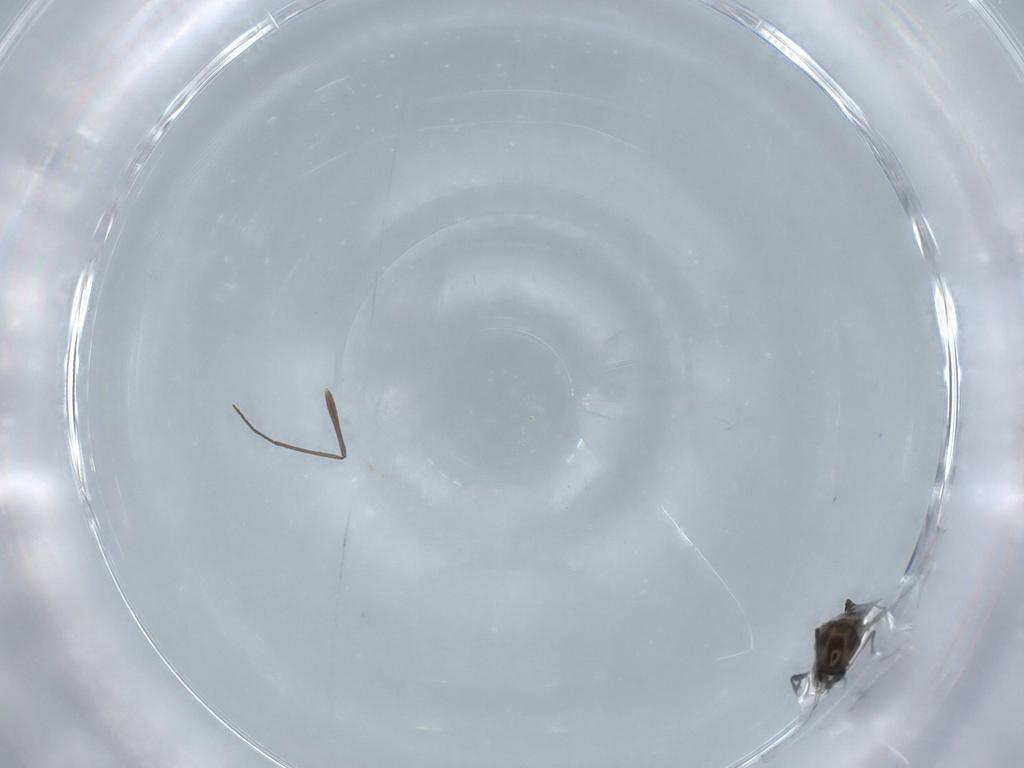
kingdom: Animalia
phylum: Arthropoda
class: Insecta
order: Diptera
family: Chironomidae
